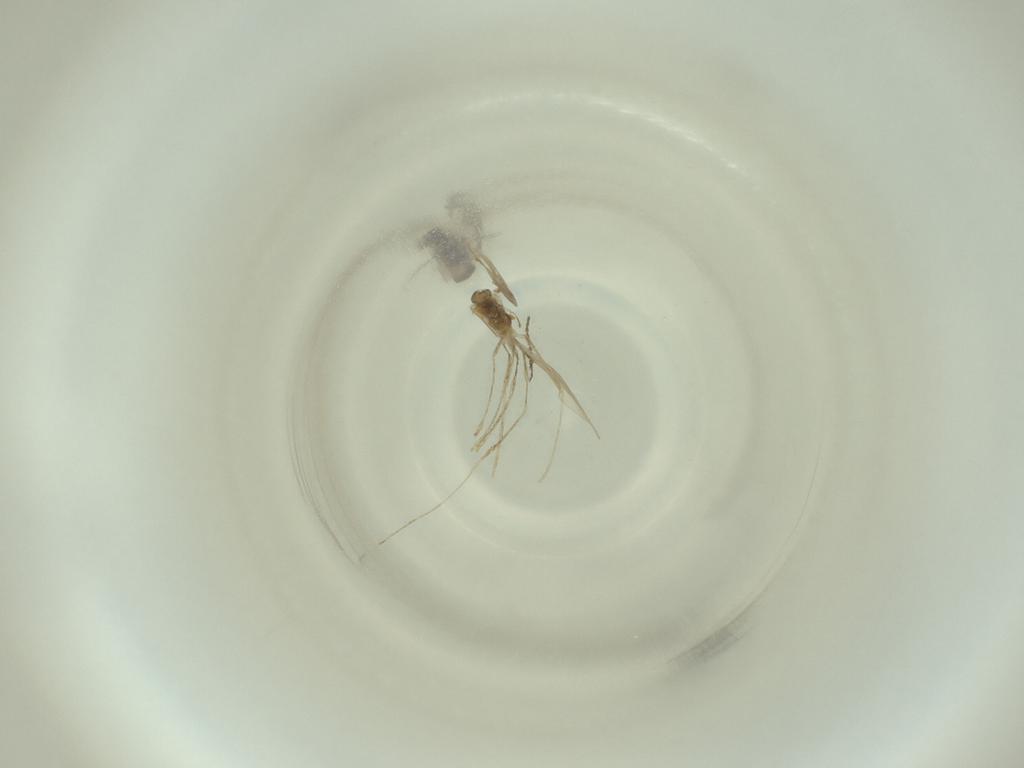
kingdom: Animalia
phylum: Arthropoda
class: Insecta
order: Diptera
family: Cecidomyiidae
